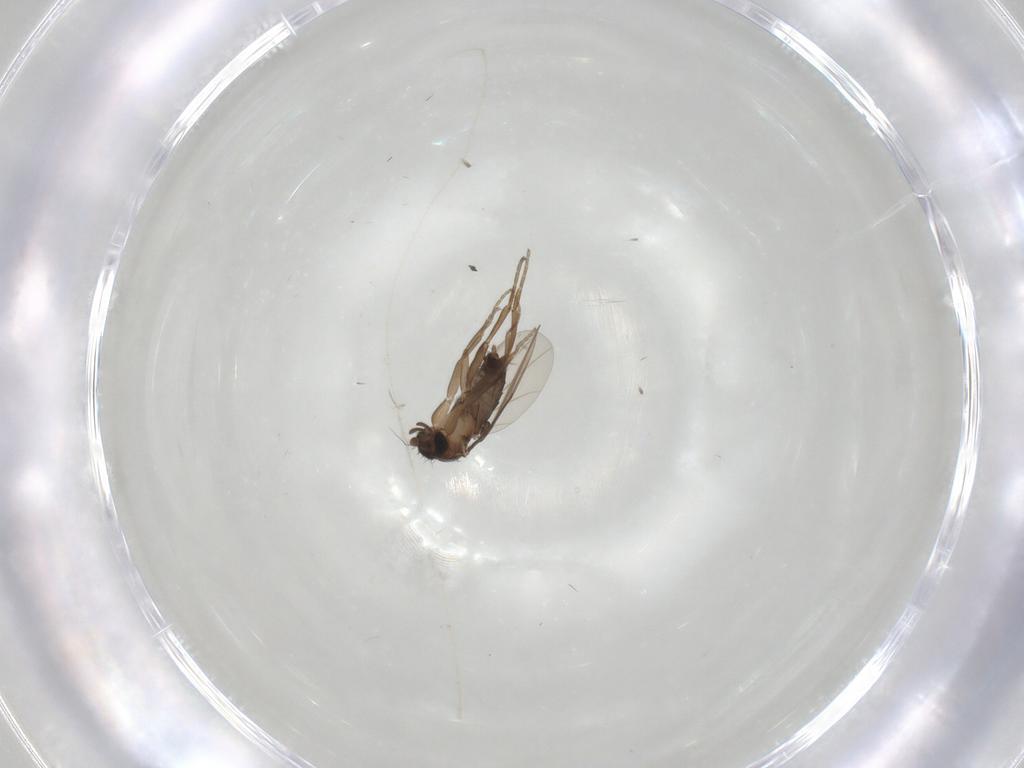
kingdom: Animalia
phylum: Arthropoda
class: Insecta
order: Diptera
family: Phoridae
